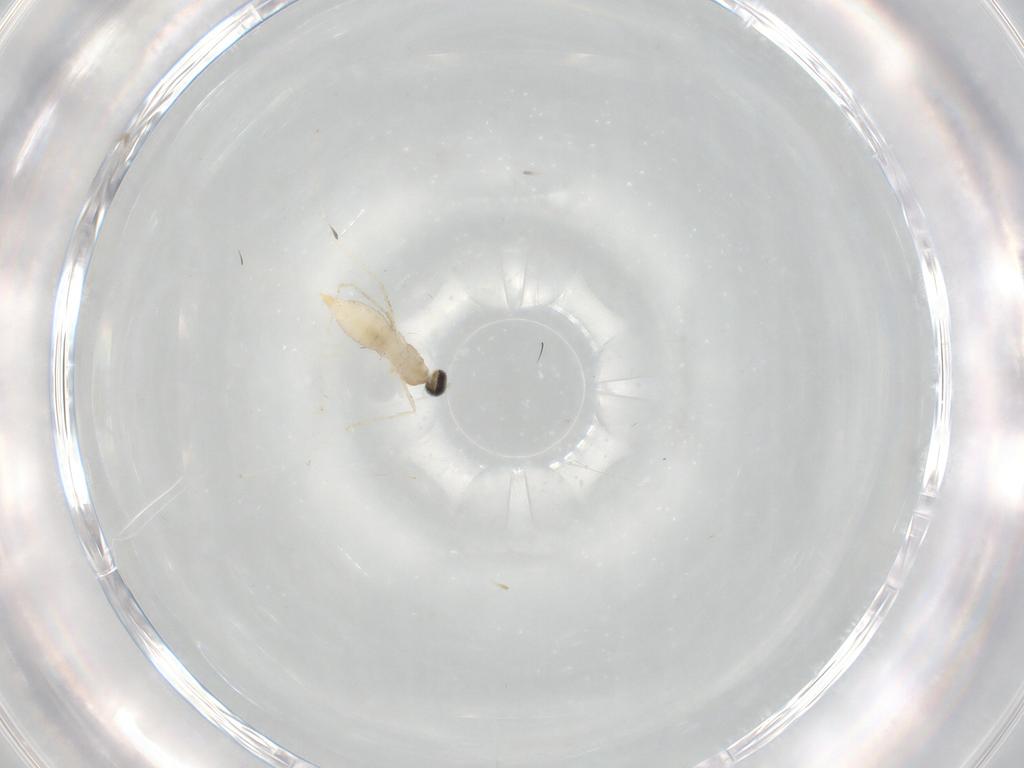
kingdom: Animalia
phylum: Arthropoda
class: Insecta
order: Diptera
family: Cecidomyiidae
